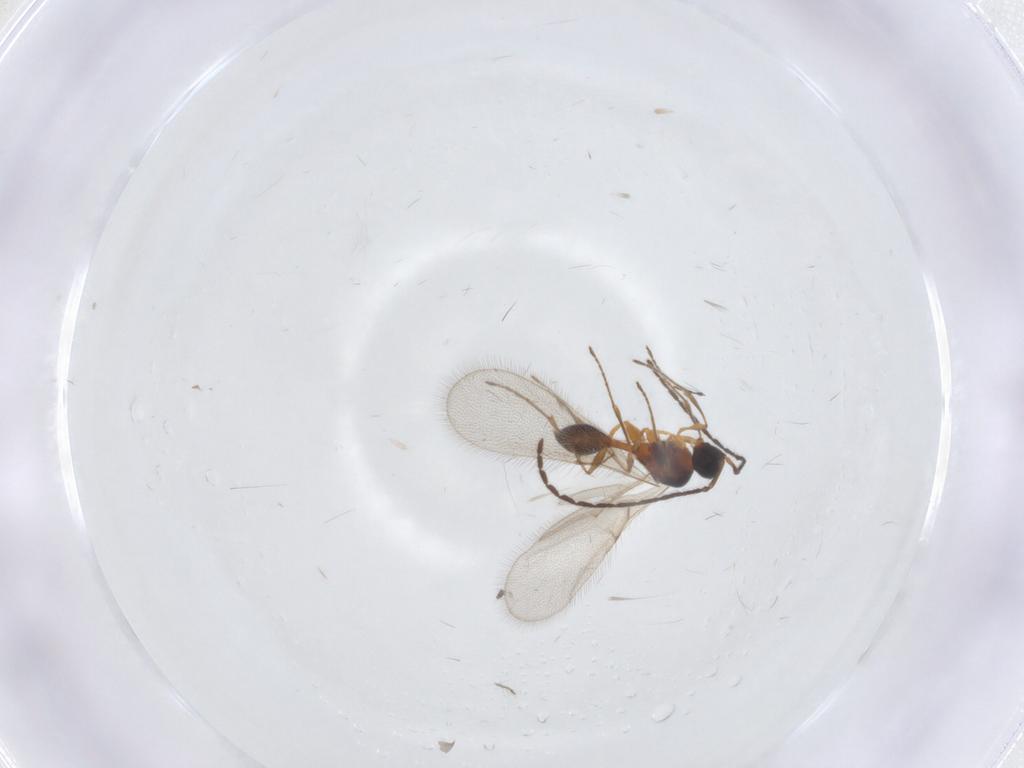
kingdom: Animalia
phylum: Arthropoda
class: Insecta
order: Hymenoptera
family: Diapriidae
